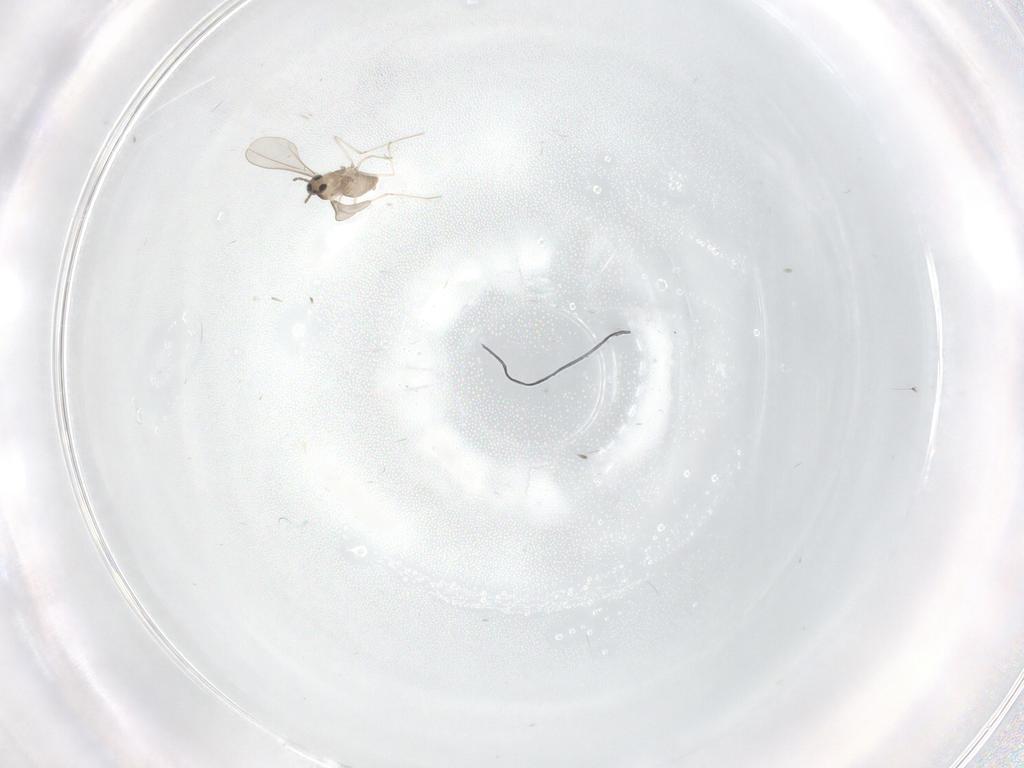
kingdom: Animalia
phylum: Arthropoda
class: Insecta
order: Diptera
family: Cecidomyiidae
